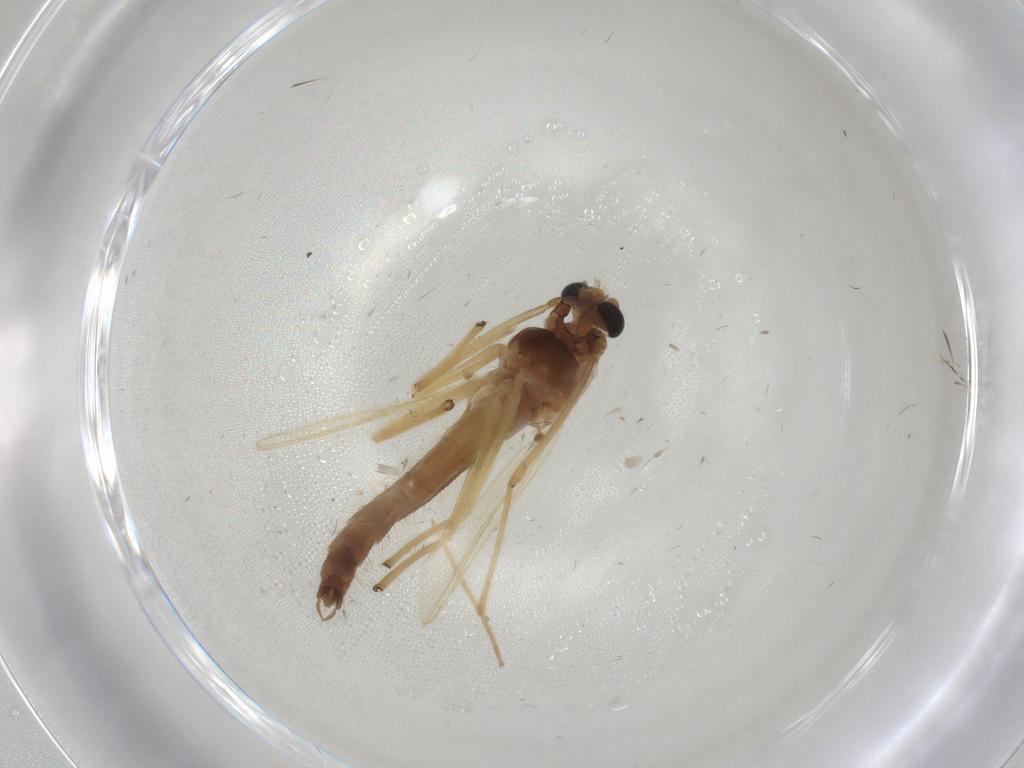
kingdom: Animalia
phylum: Arthropoda
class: Insecta
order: Diptera
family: Chironomidae
